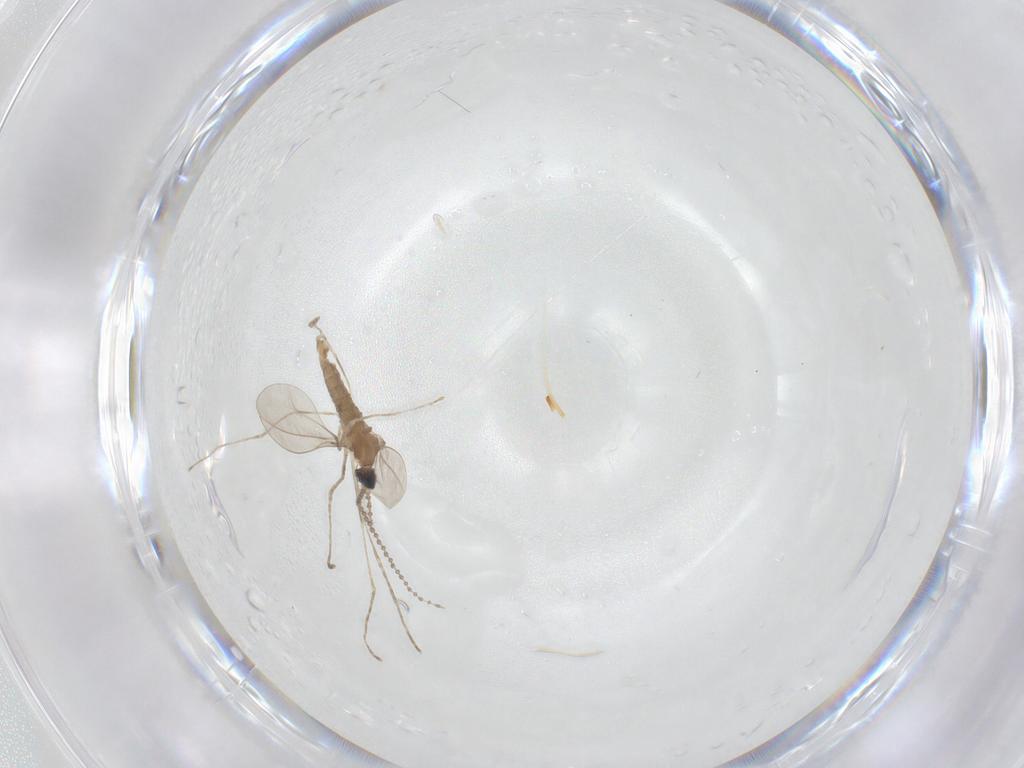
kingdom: Animalia
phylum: Arthropoda
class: Insecta
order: Diptera
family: Cecidomyiidae
